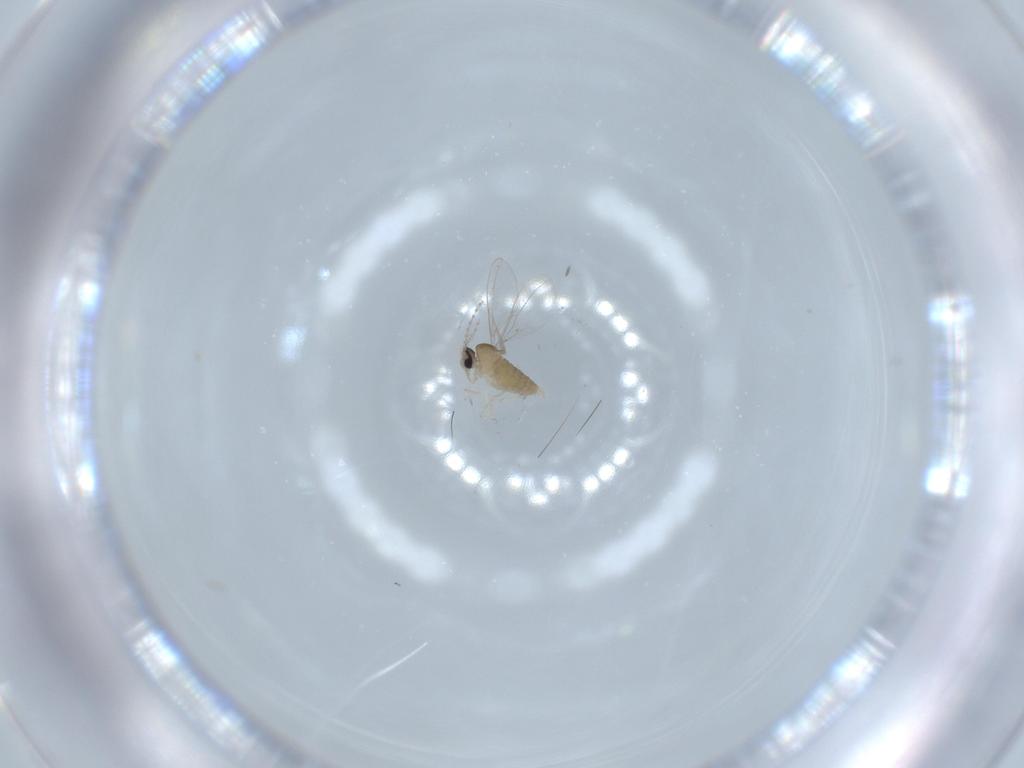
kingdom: Animalia
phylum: Arthropoda
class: Insecta
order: Diptera
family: Cecidomyiidae
